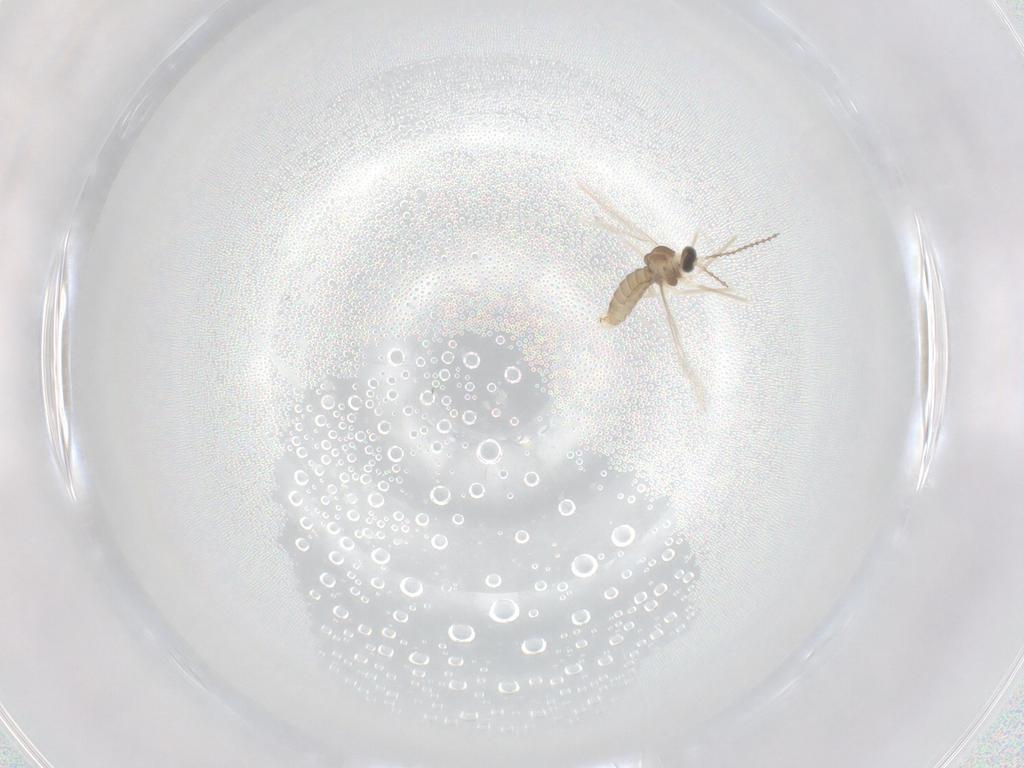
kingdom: Animalia
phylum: Arthropoda
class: Insecta
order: Diptera
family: Cecidomyiidae
